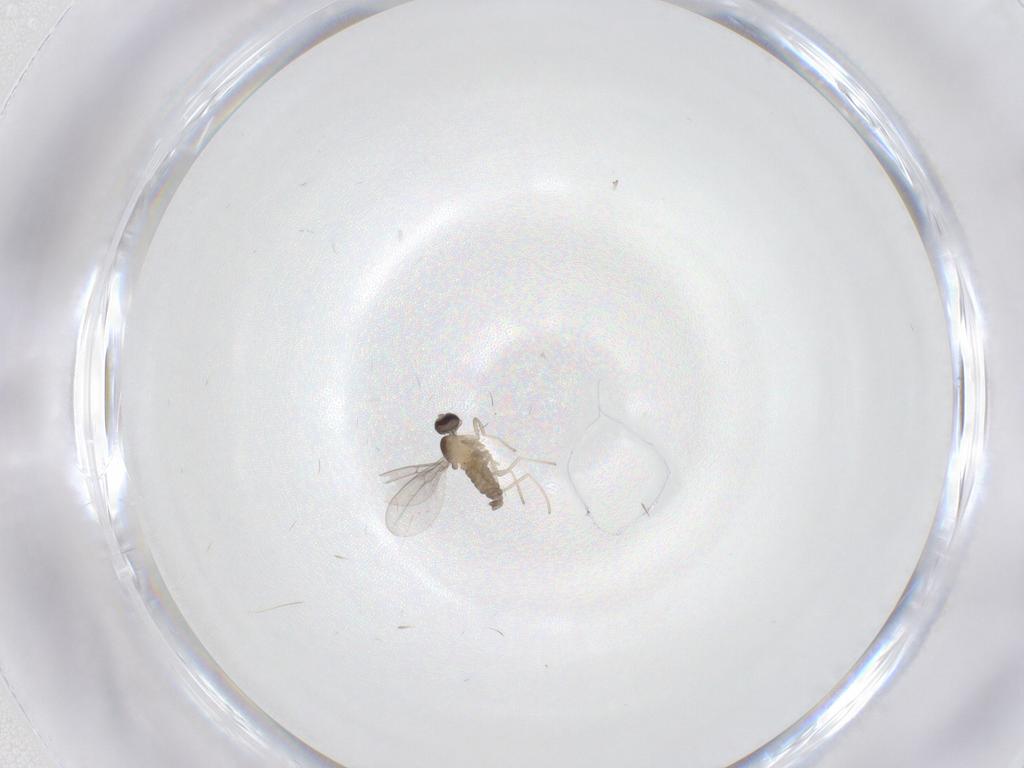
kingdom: Animalia
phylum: Arthropoda
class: Insecta
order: Diptera
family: Cecidomyiidae
